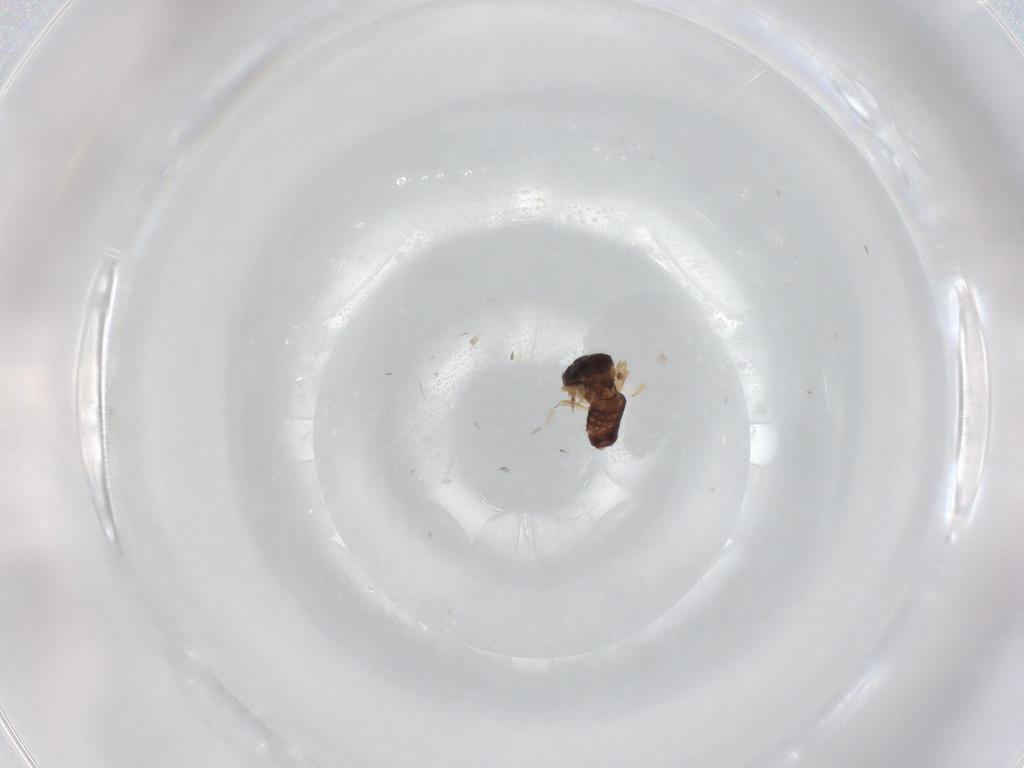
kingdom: Animalia
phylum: Arthropoda
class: Insecta
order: Diptera
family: Ceratopogonidae
